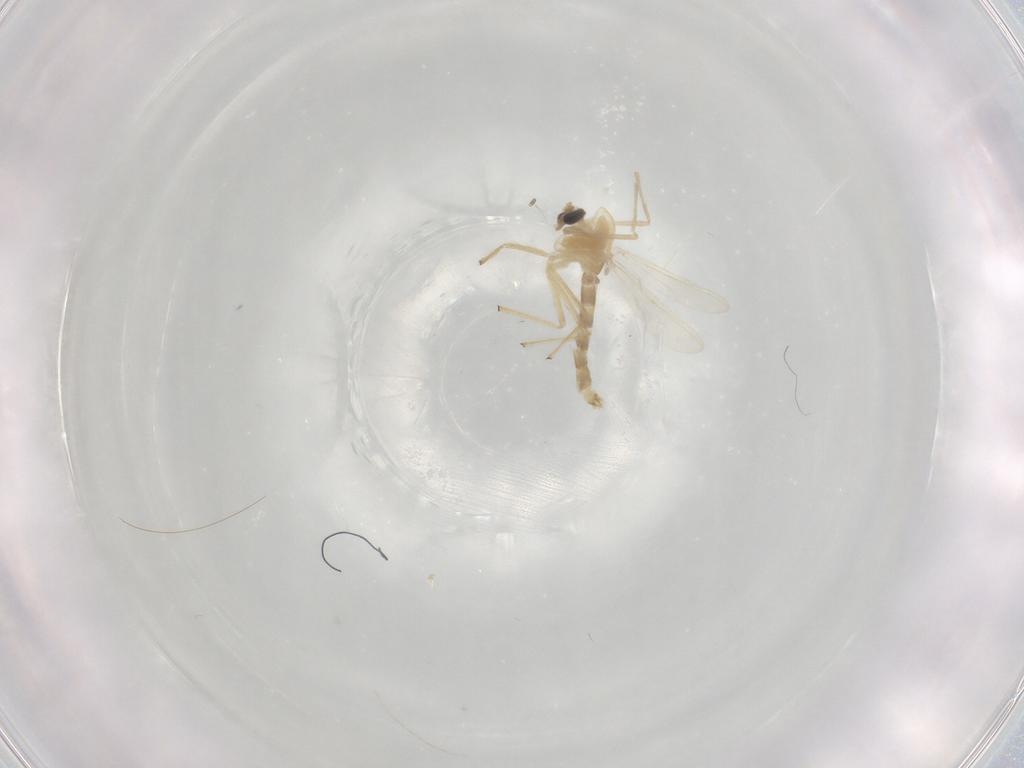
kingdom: Animalia
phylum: Arthropoda
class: Insecta
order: Diptera
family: Chironomidae
